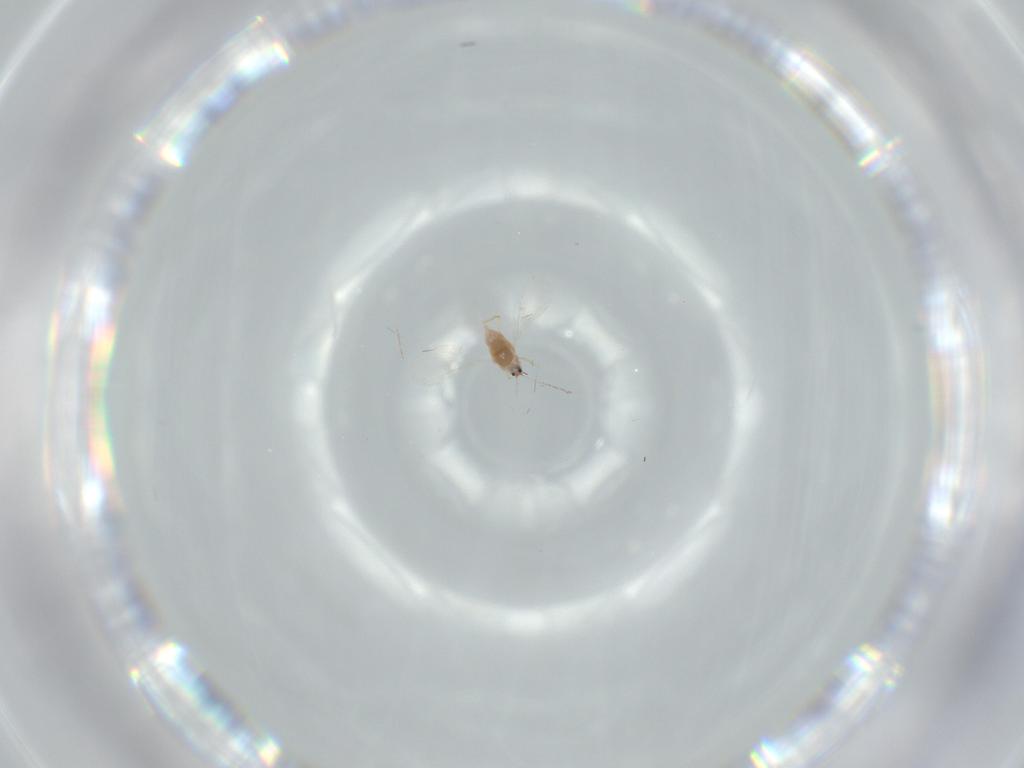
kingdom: Animalia
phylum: Arthropoda
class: Insecta
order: Hemiptera
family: Diaspididae
